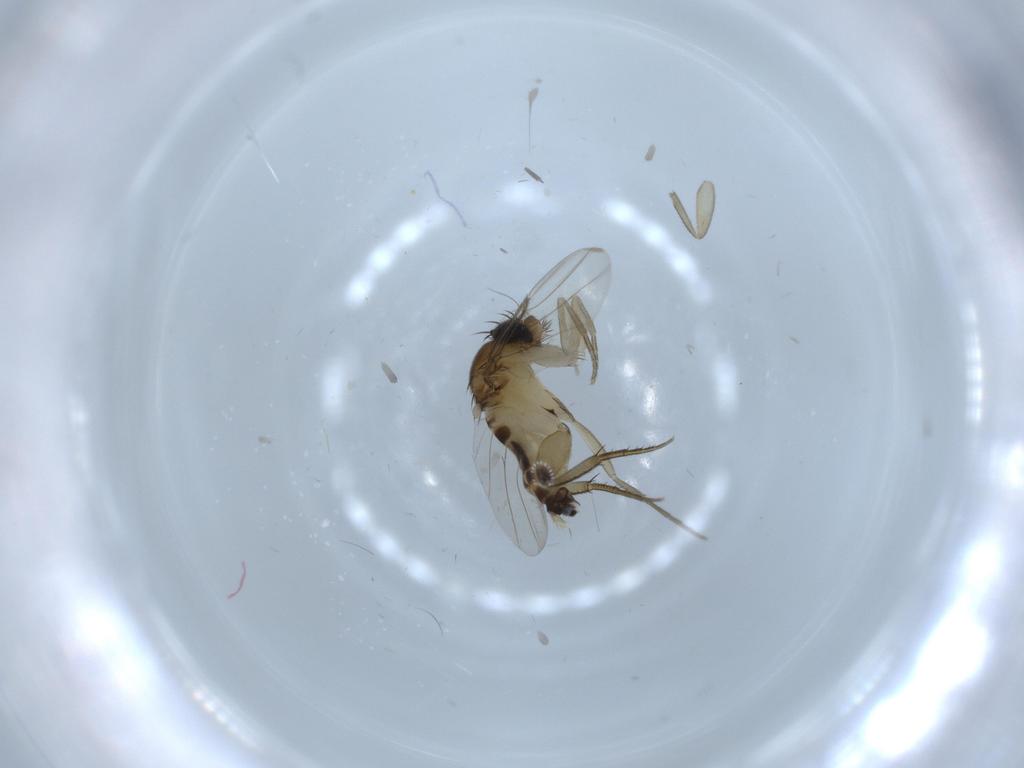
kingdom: Animalia
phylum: Arthropoda
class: Insecta
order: Diptera
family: Phoridae
